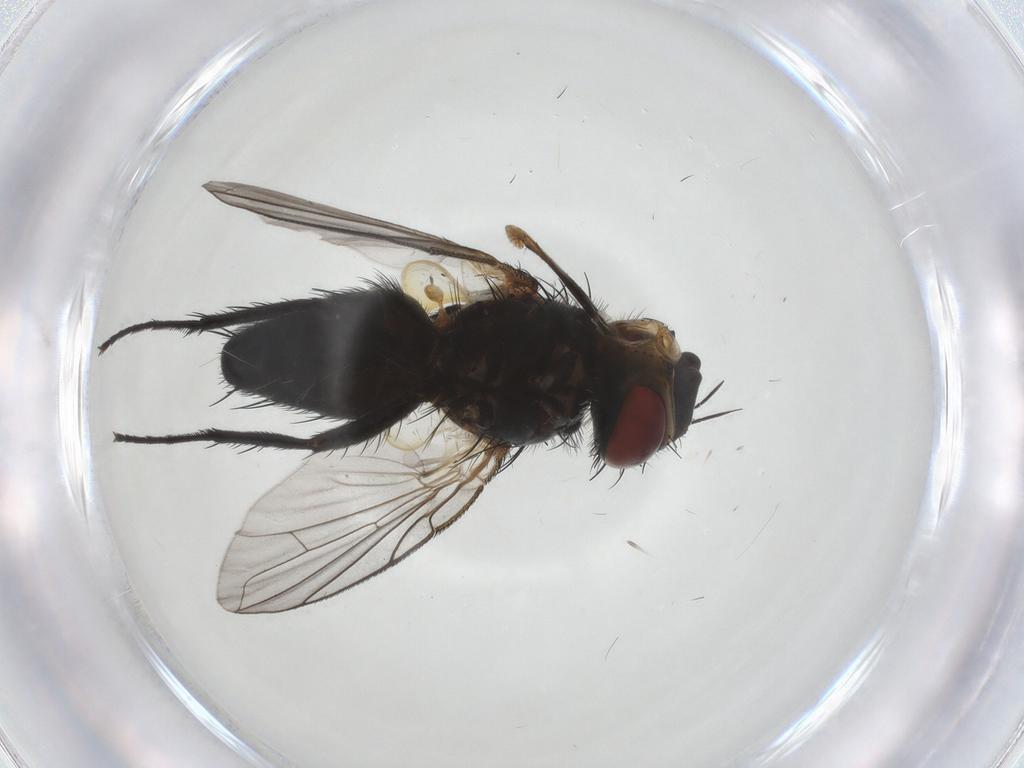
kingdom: Animalia
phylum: Arthropoda
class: Insecta
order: Diptera
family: Tachinidae
